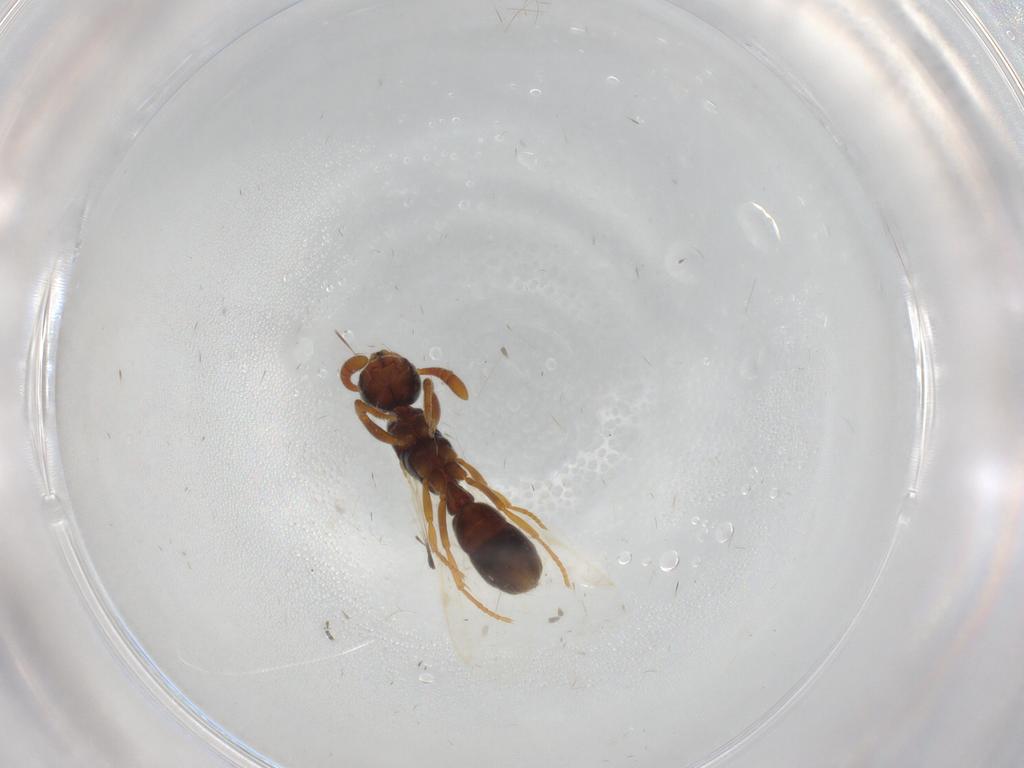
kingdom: Animalia
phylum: Arthropoda
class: Insecta
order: Hymenoptera
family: Formicidae
